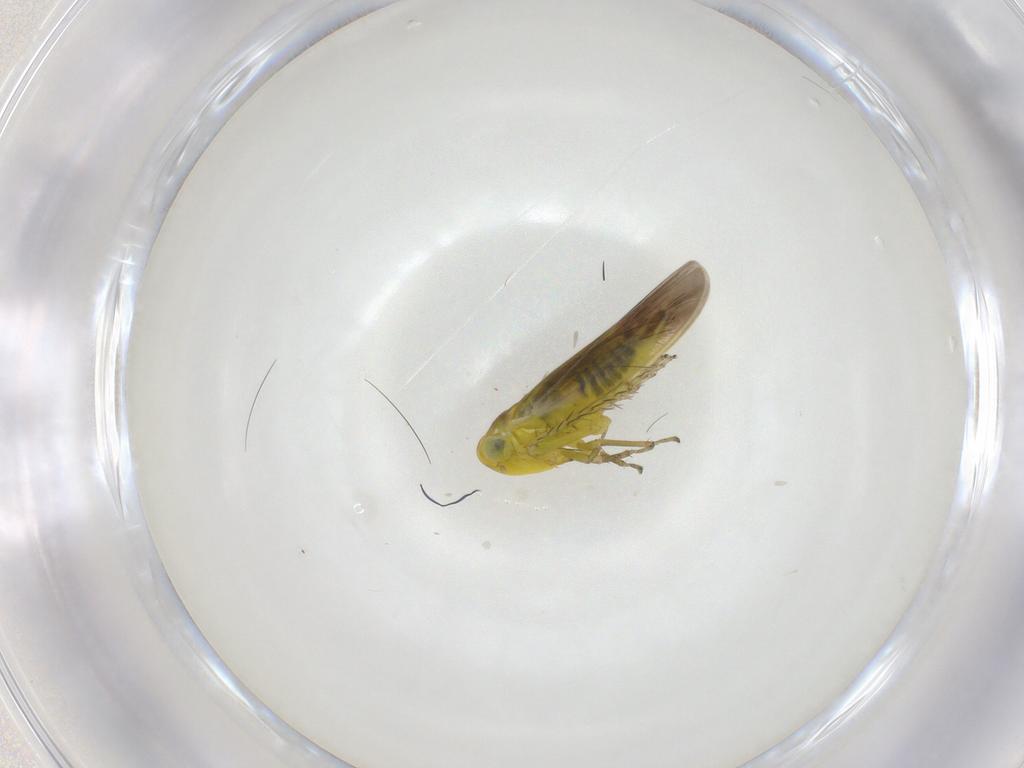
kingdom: Animalia
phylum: Arthropoda
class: Insecta
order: Hemiptera
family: Cicadellidae
